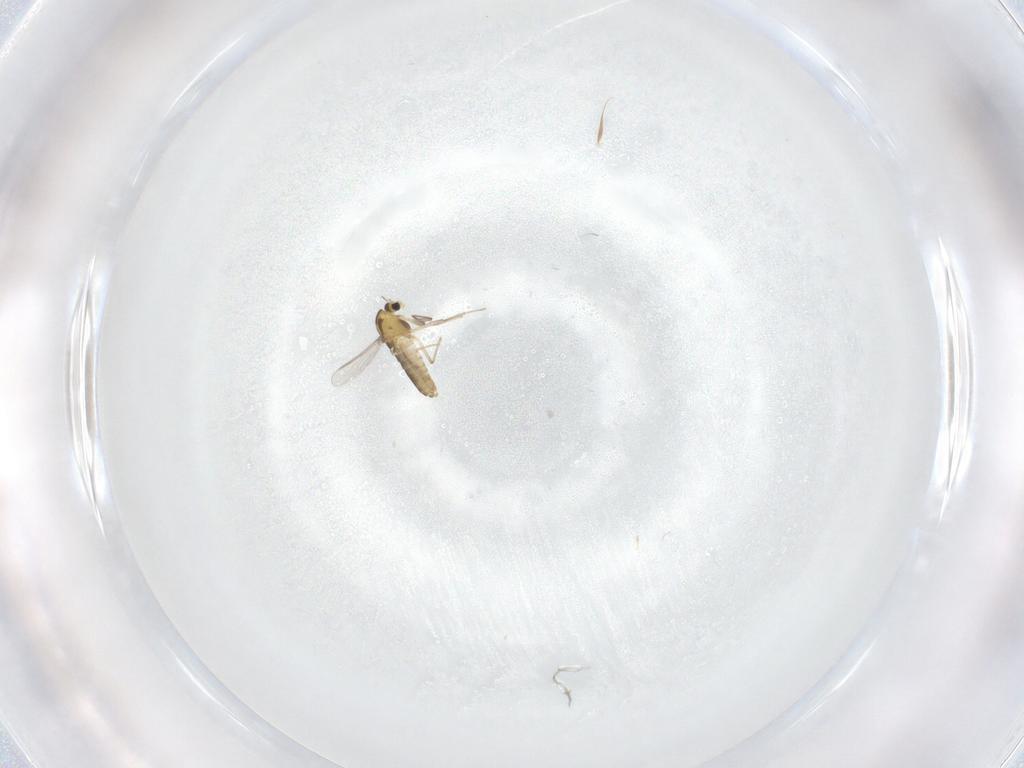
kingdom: Animalia
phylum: Arthropoda
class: Insecta
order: Diptera
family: Chironomidae
